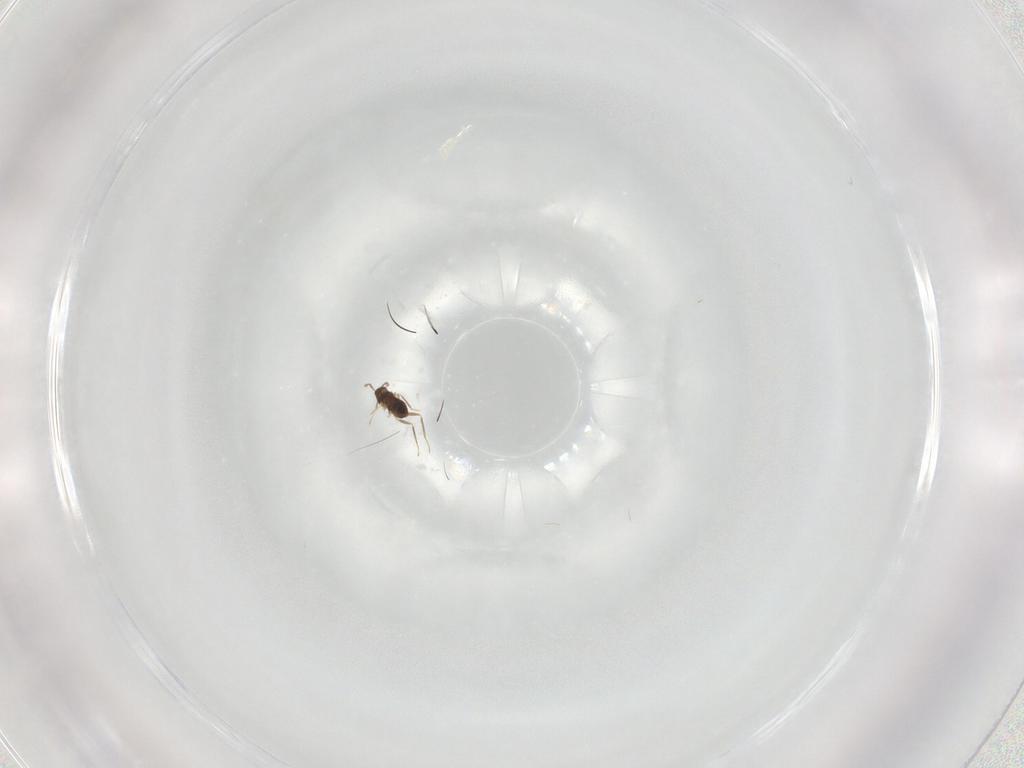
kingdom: Animalia
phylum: Arthropoda
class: Insecta
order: Hymenoptera
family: Mymaridae
